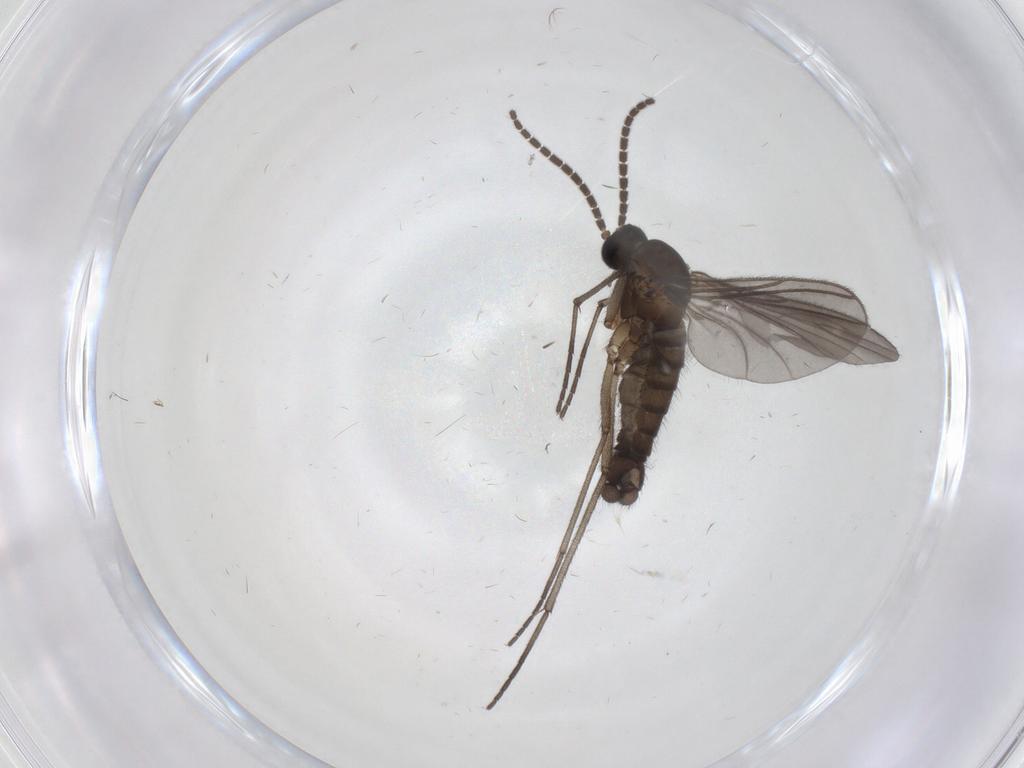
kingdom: Animalia
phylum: Arthropoda
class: Insecta
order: Diptera
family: Sciaridae
